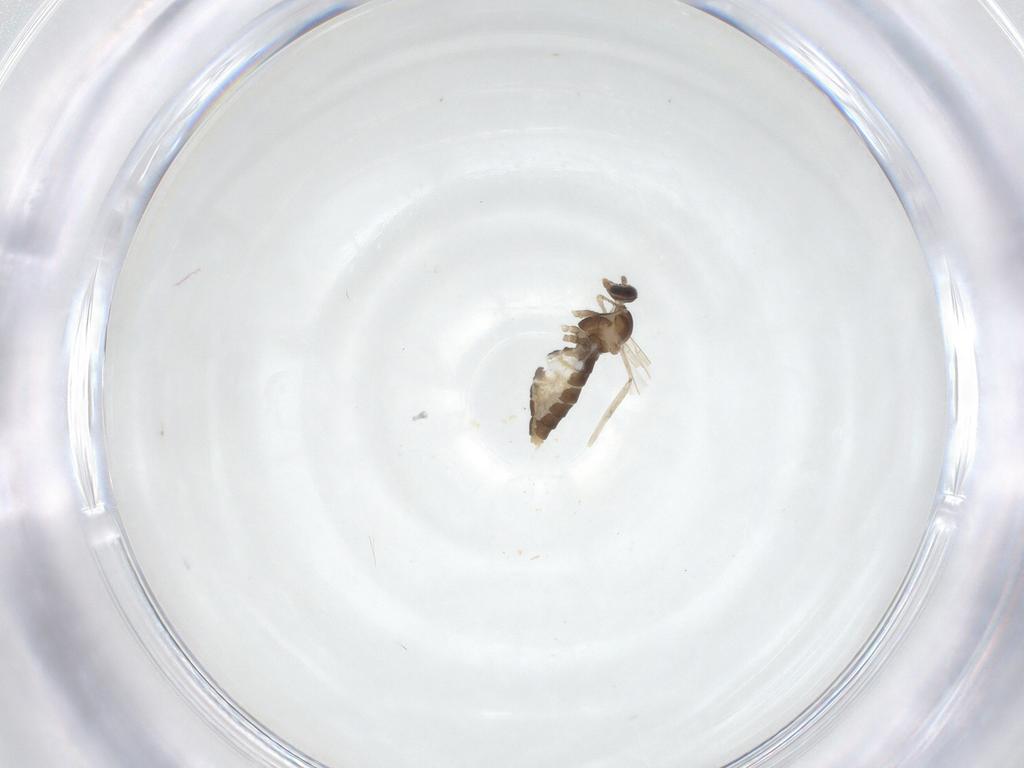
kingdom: Animalia
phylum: Arthropoda
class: Insecta
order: Diptera
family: Cecidomyiidae
